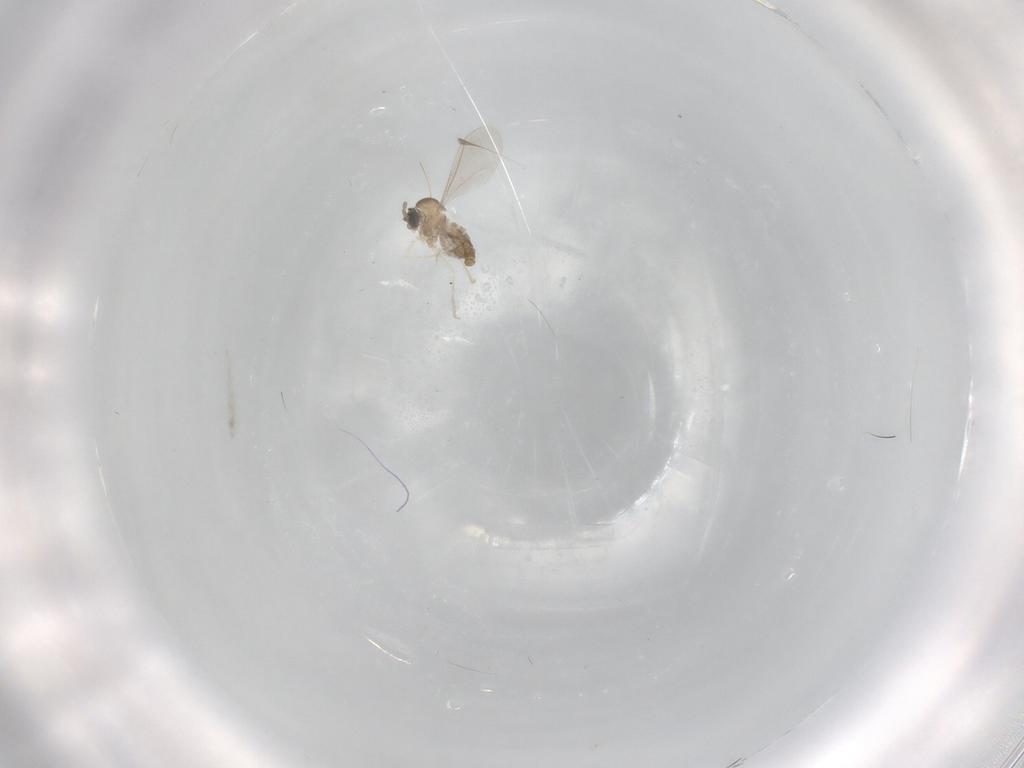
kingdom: Animalia
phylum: Arthropoda
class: Insecta
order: Diptera
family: Cecidomyiidae
